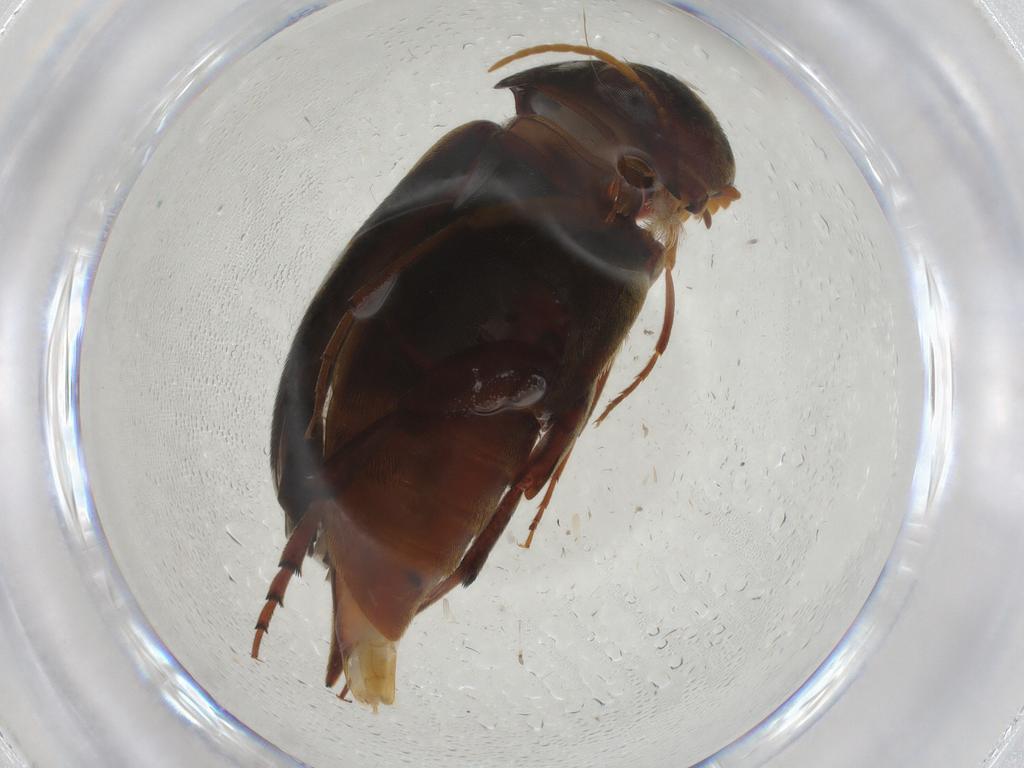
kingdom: Animalia
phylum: Arthropoda
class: Insecta
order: Coleoptera
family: Mordellidae
